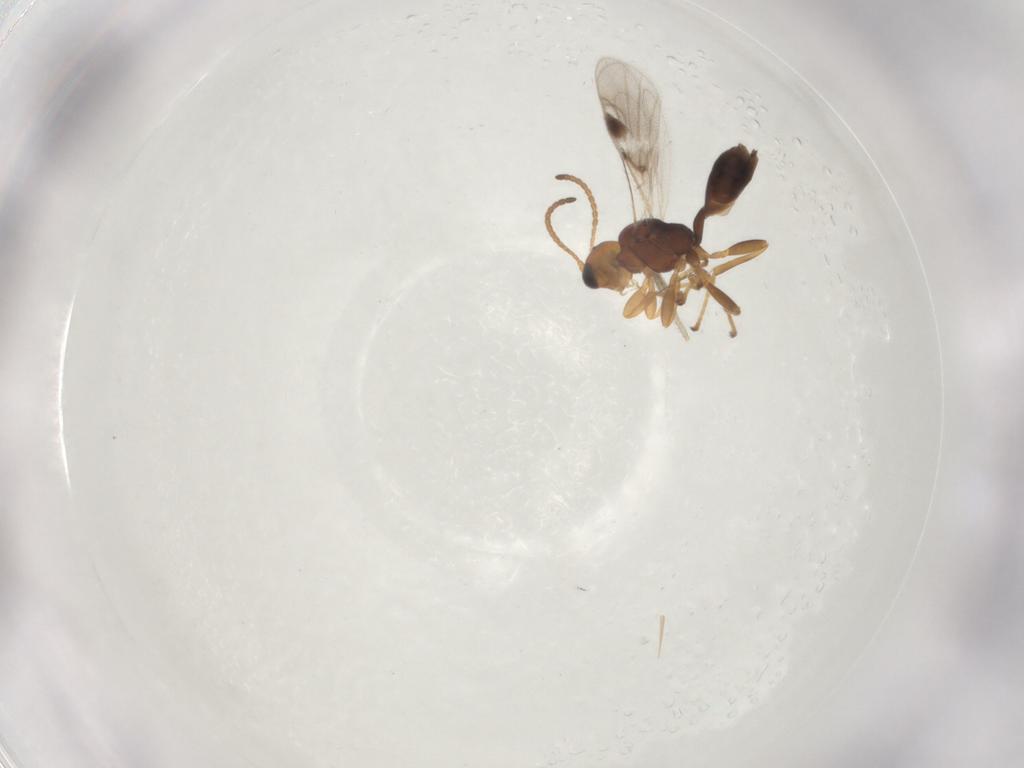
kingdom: Animalia
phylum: Arthropoda
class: Insecta
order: Hymenoptera
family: Braconidae
